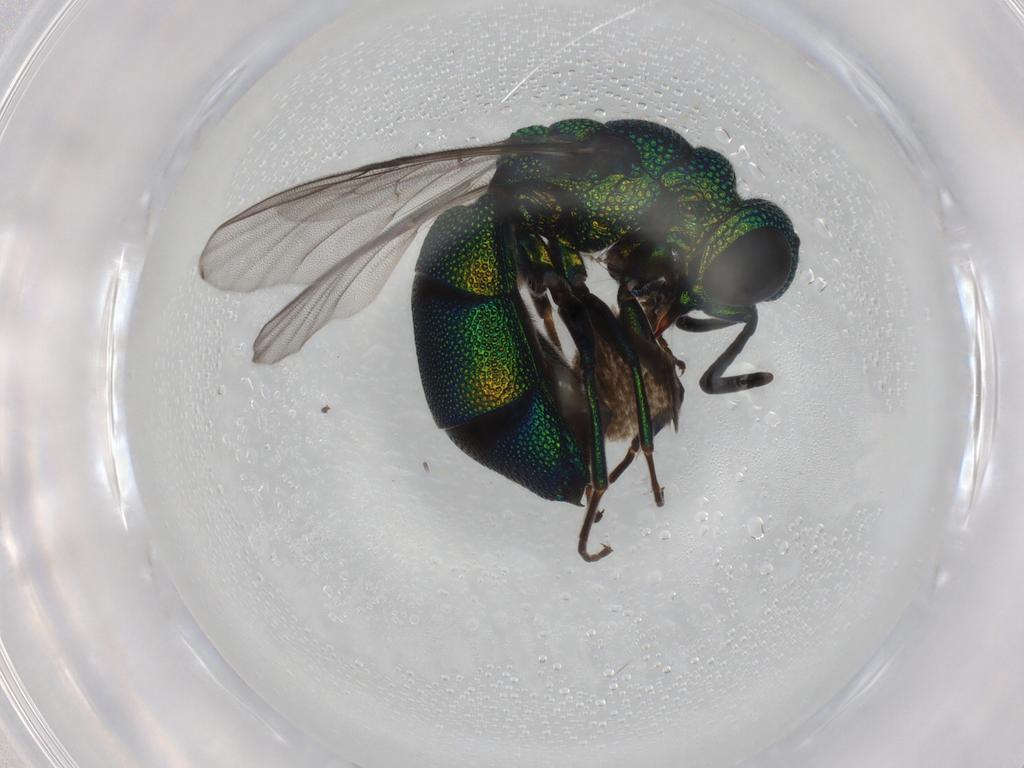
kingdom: Animalia
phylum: Arthropoda
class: Insecta
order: Hymenoptera
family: Chrysididae
